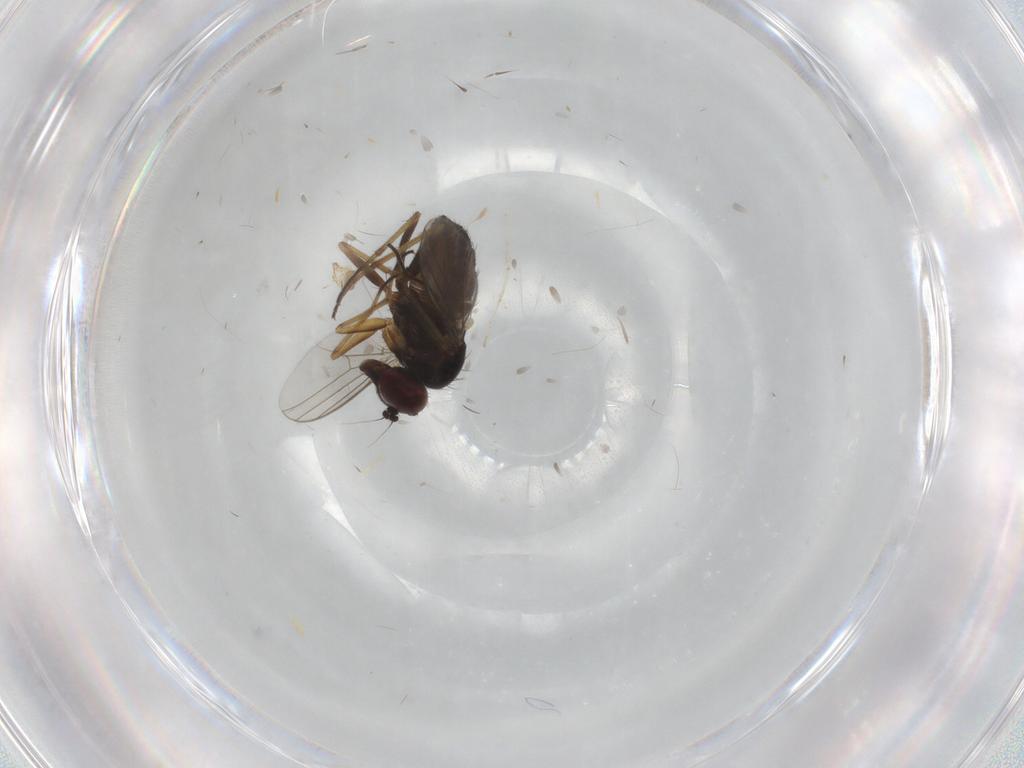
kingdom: Animalia
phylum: Arthropoda
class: Insecta
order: Diptera
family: Dolichopodidae
